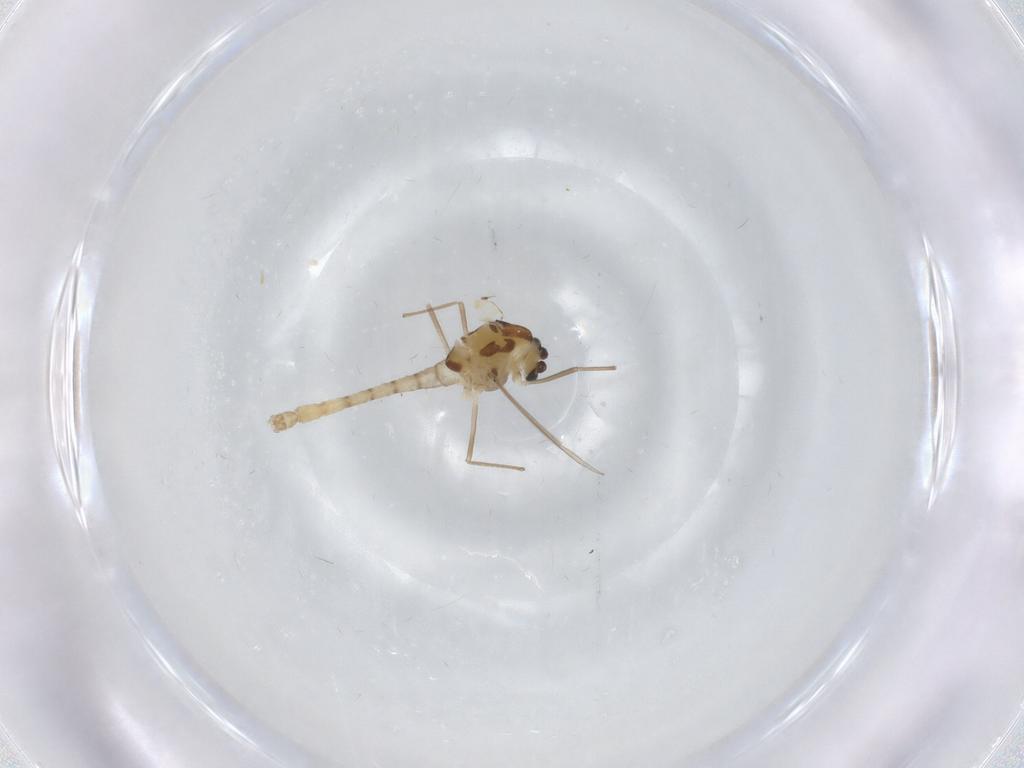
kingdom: Animalia
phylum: Arthropoda
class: Insecta
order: Diptera
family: Chironomidae
